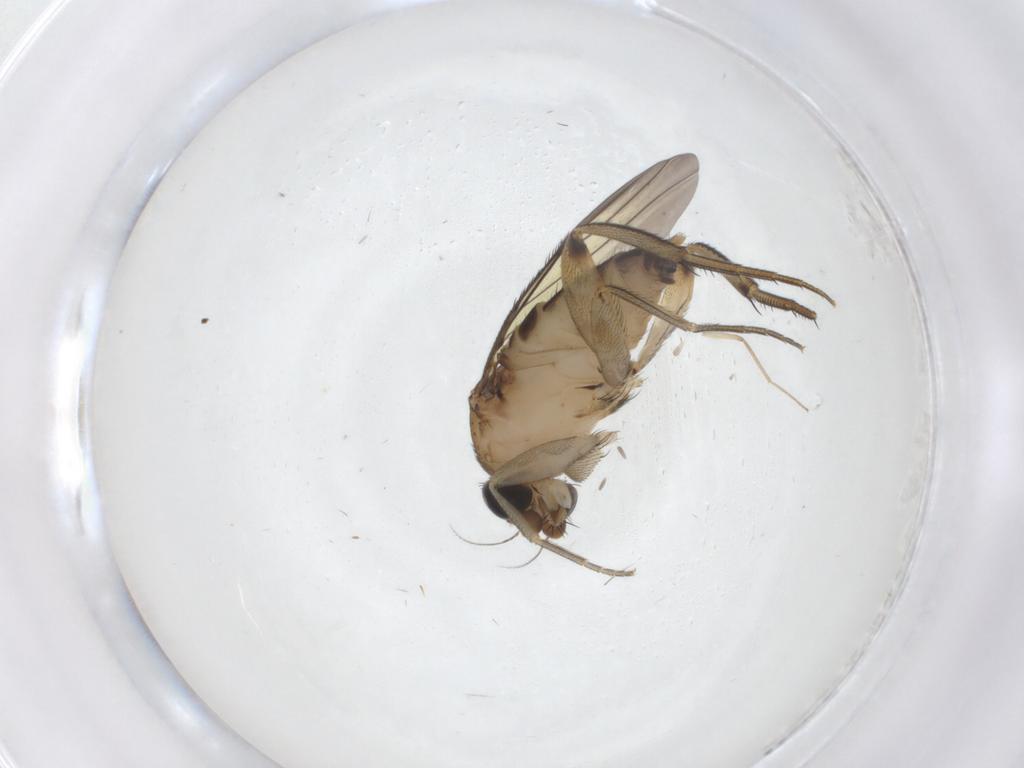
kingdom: Animalia
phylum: Arthropoda
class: Insecta
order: Diptera
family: Phoridae
